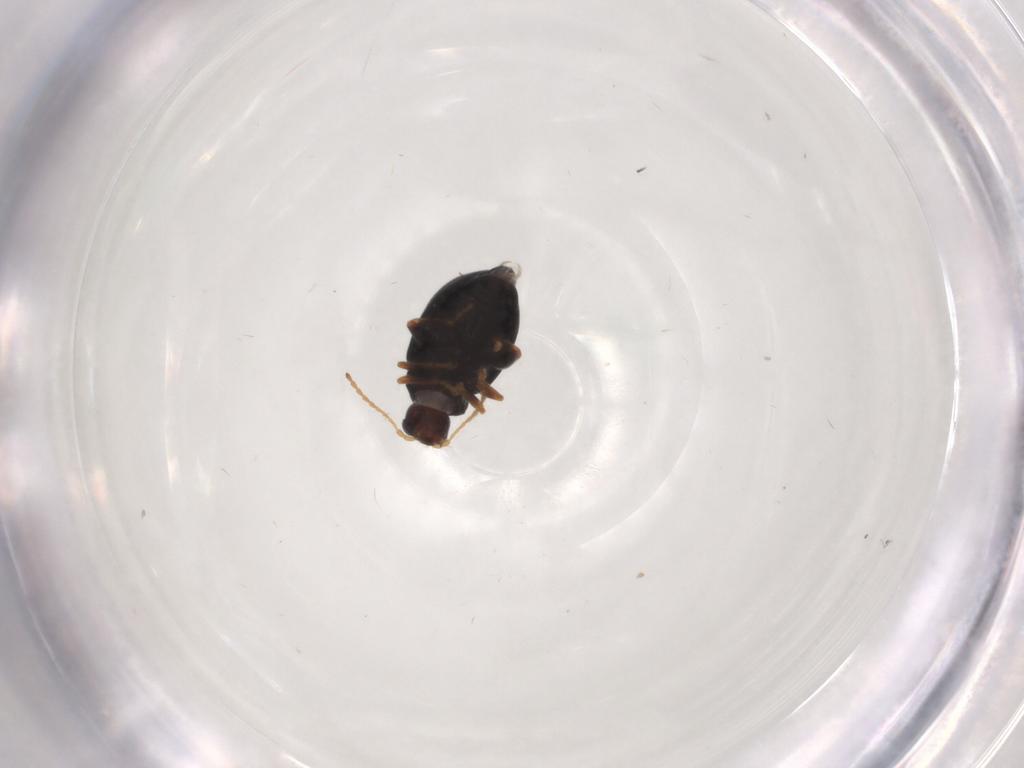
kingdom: Animalia
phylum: Arthropoda
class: Insecta
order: Coleoptera
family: Chrysomelidae
